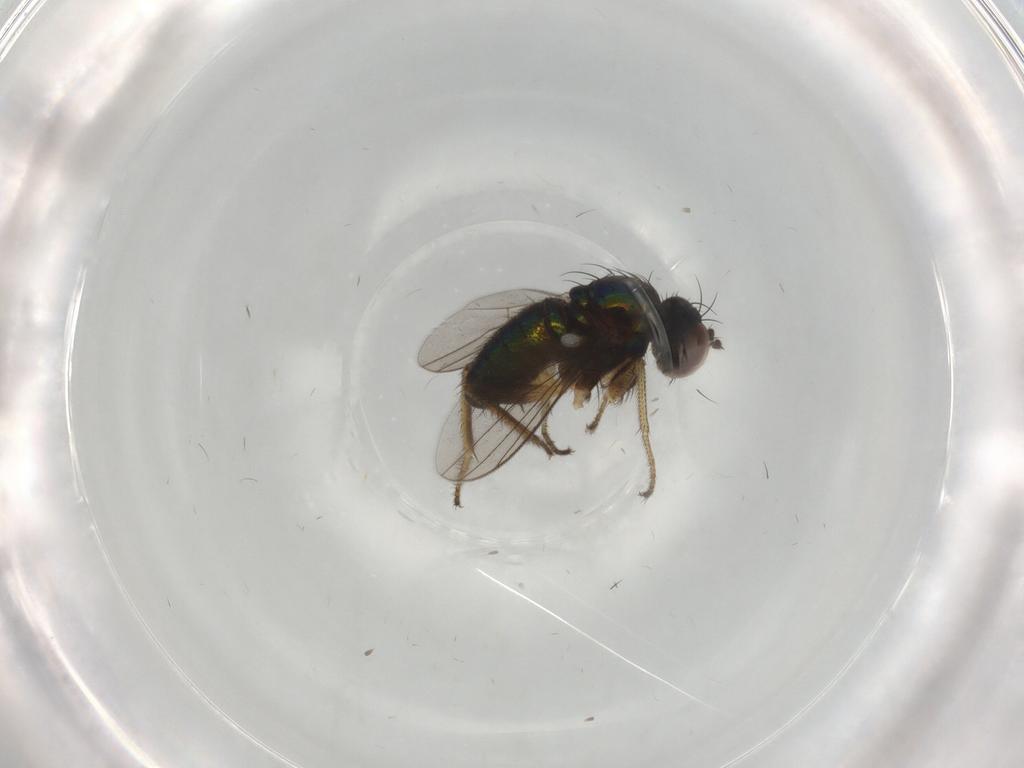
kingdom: Animalia
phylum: Arthropoda
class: Insecta
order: Diptera
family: Dolichopodidae
